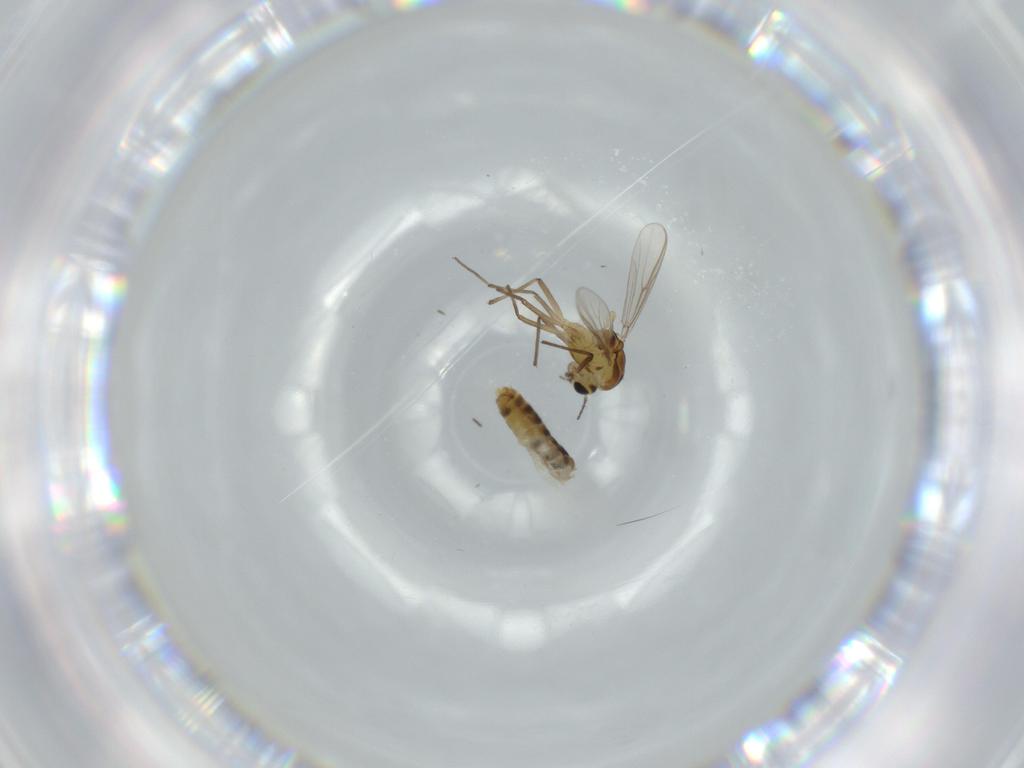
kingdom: Animalia
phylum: Arthropoda
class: Insecta
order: Diptera
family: Chironomidae
